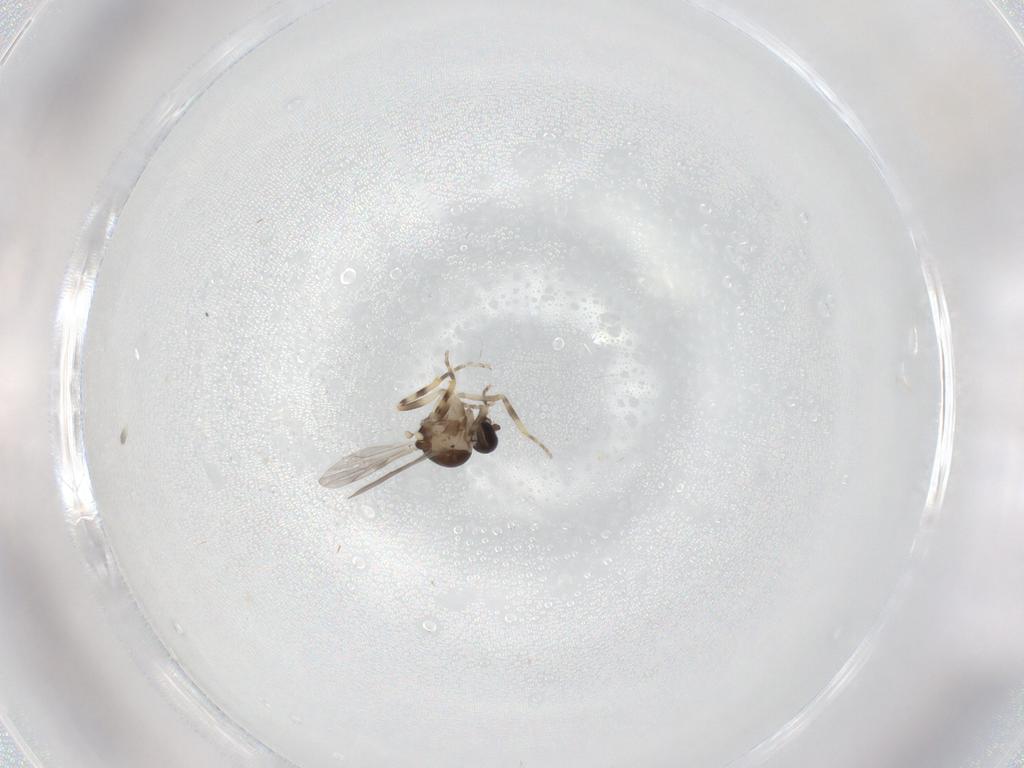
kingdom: Animalia
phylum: Arthropoda
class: Insecta
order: Diptera
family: Ceratopogonidae
